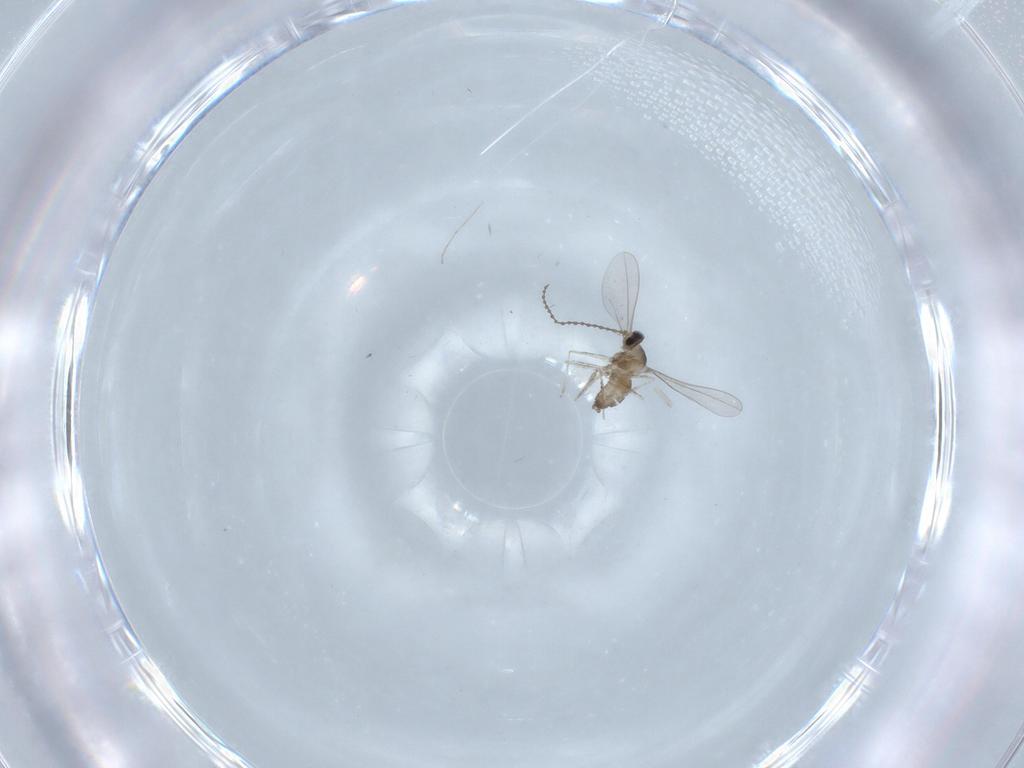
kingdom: Animalia
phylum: Arthropoda
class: Insecta
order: Diptera
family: Cecidomyiidae
